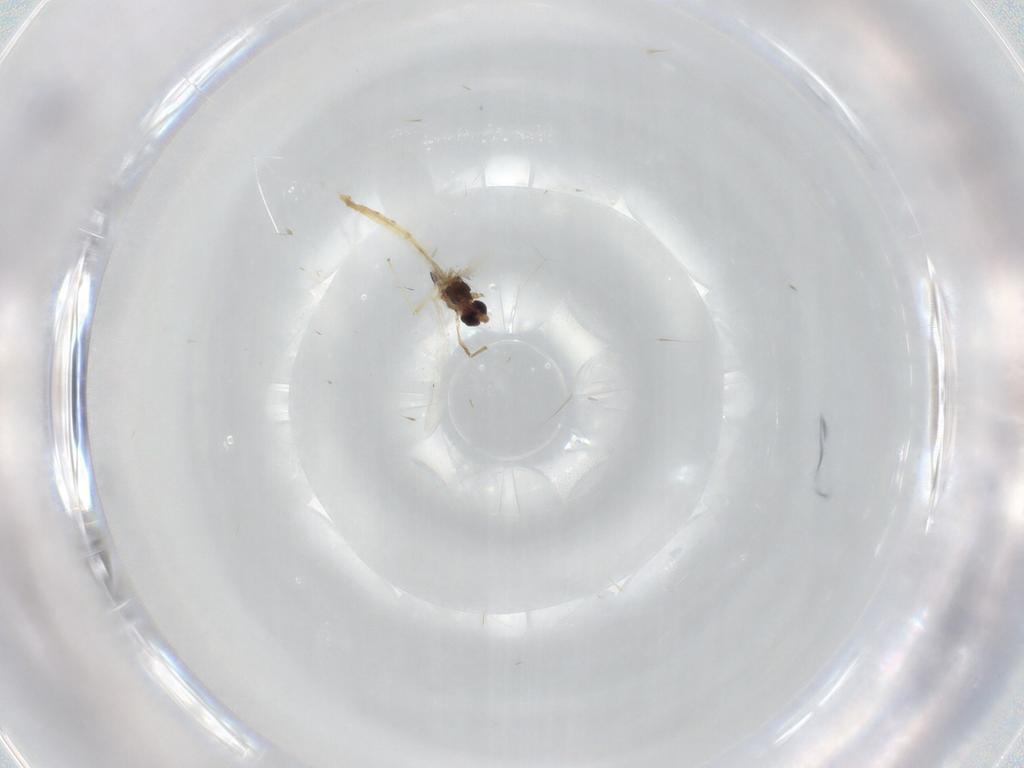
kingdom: Animalia
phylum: Arthropoda
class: Insecta
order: Diptera
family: Chironomidae
